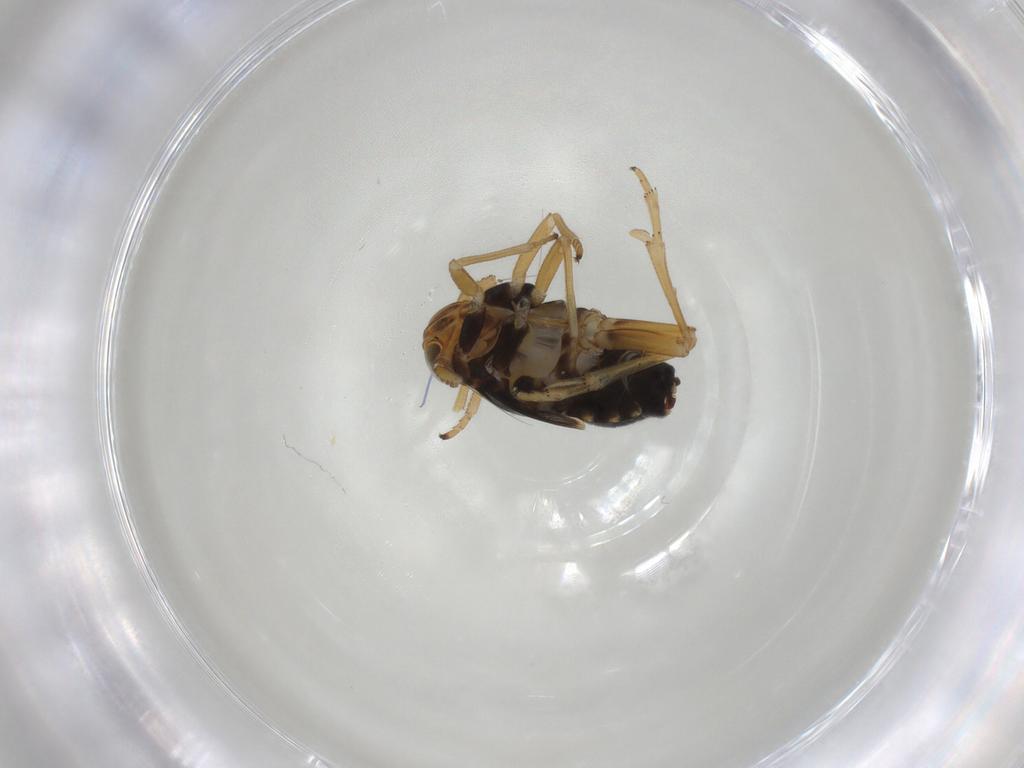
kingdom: Animalia
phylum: Arthropoda
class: Insecta
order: Hemiptera
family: Delphacidae
